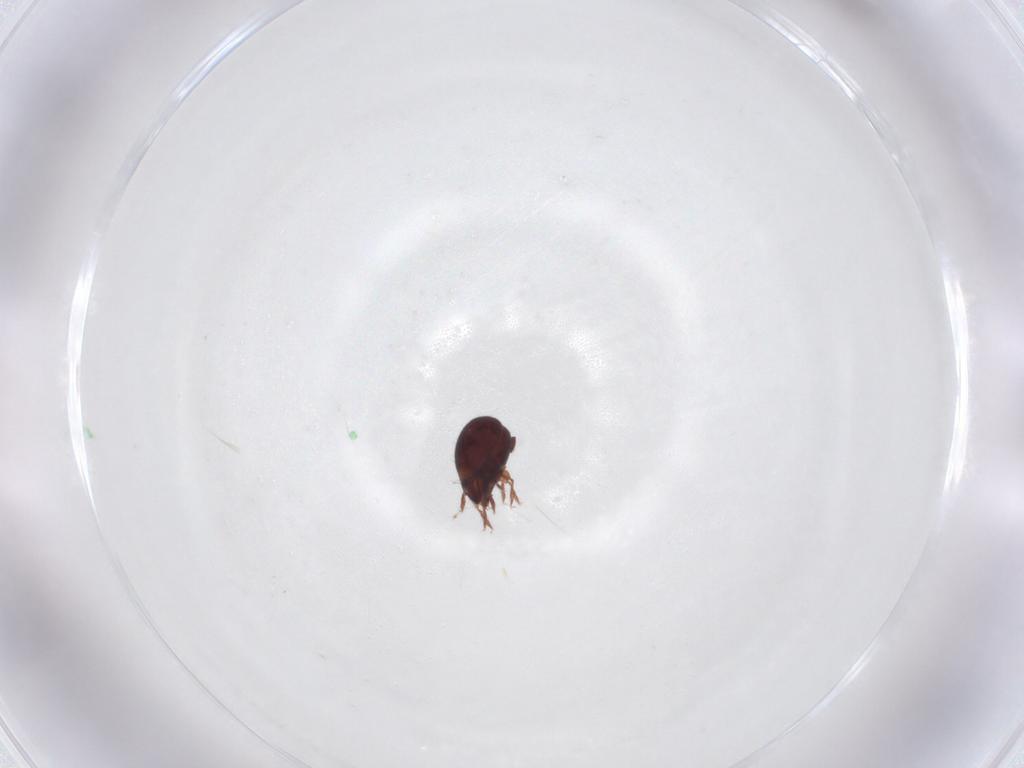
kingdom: Animalia
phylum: Arthropoda
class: Arachnida
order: Sarcoptiformes
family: Humerobatidae
